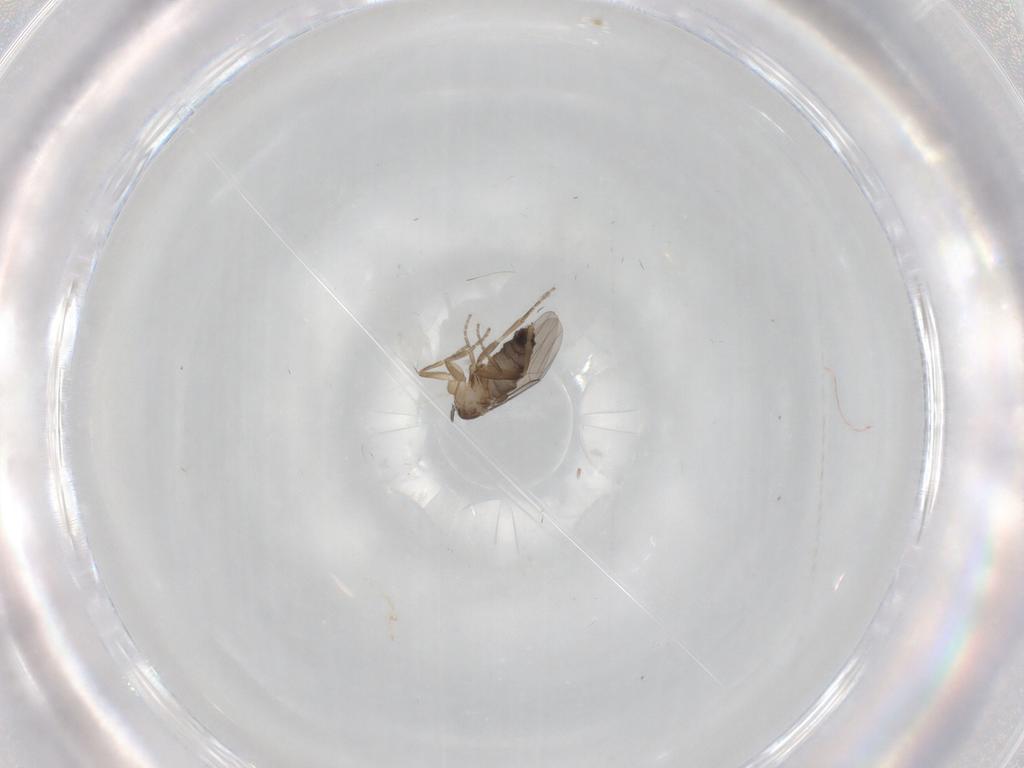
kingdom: Animalia
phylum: Arthropoda
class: Insecta
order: Diptera
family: Phoridae
